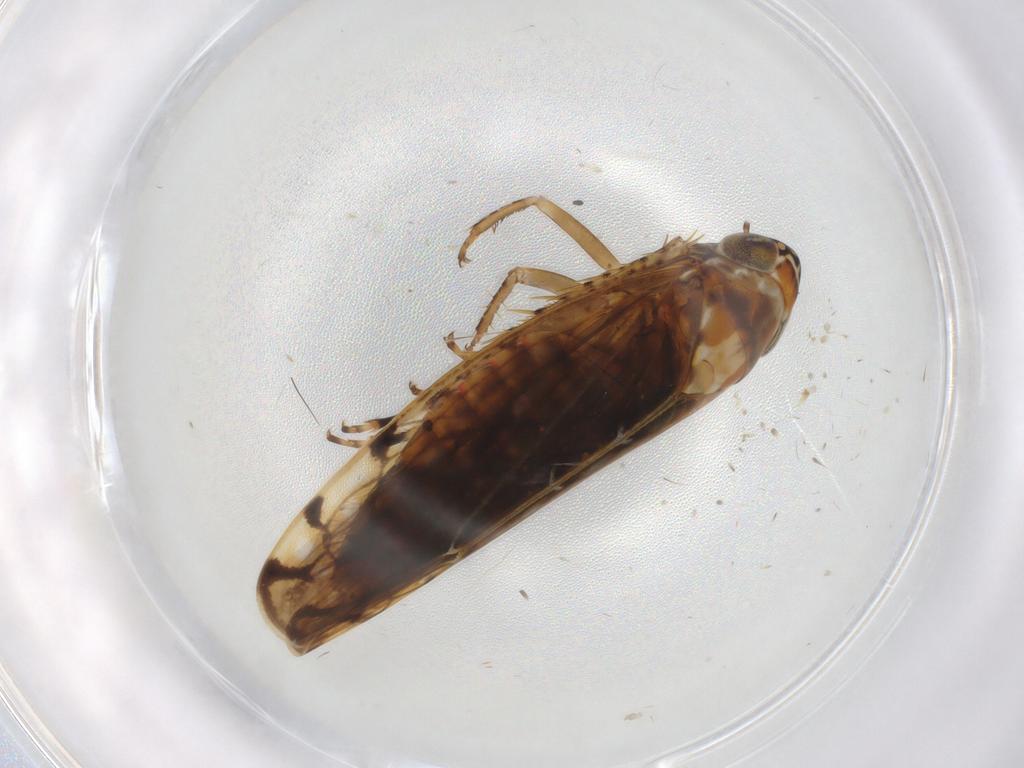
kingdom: Animalia
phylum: Arthropoda
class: Insecta
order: Hemiptera
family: Cicadellidae
